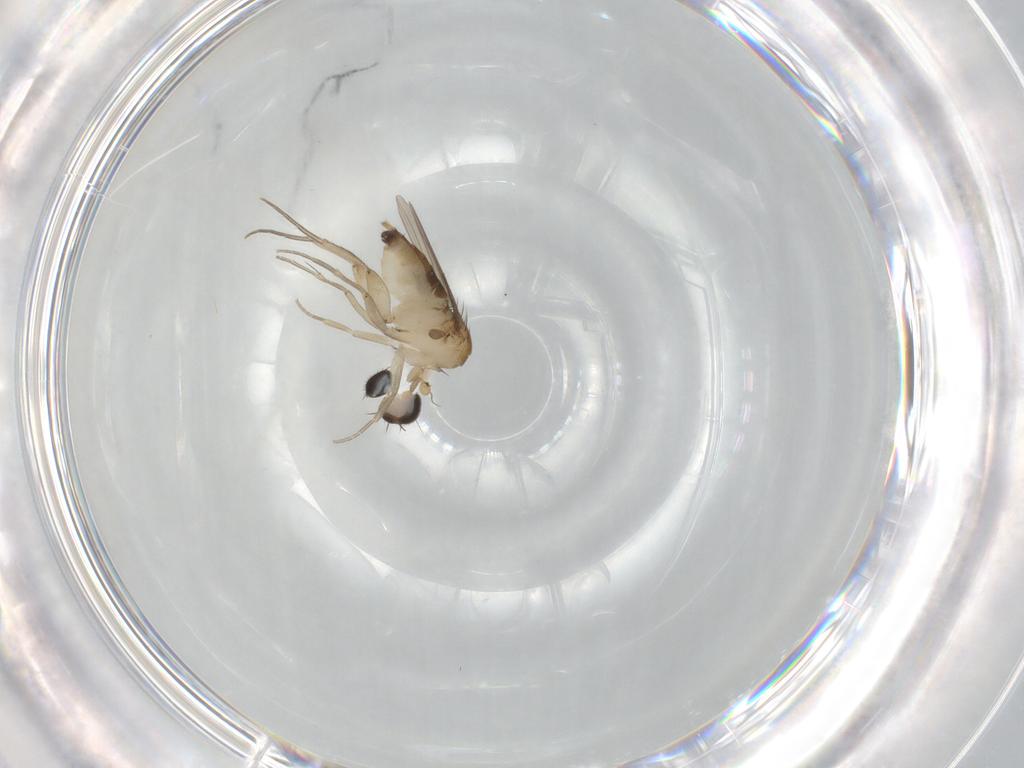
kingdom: Animalia
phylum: Arthropoda
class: Insecta
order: Diptera
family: Phoridae
